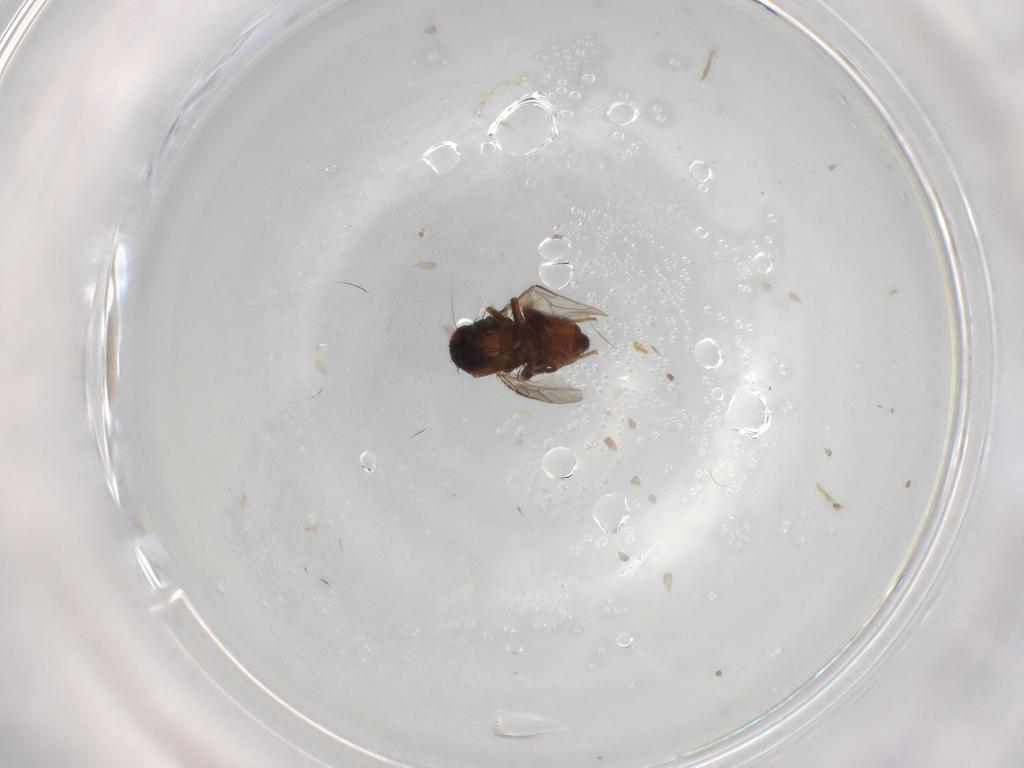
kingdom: Animalia
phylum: Arthropoda
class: Insecta
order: Diptera
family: Sphaeroceridae
